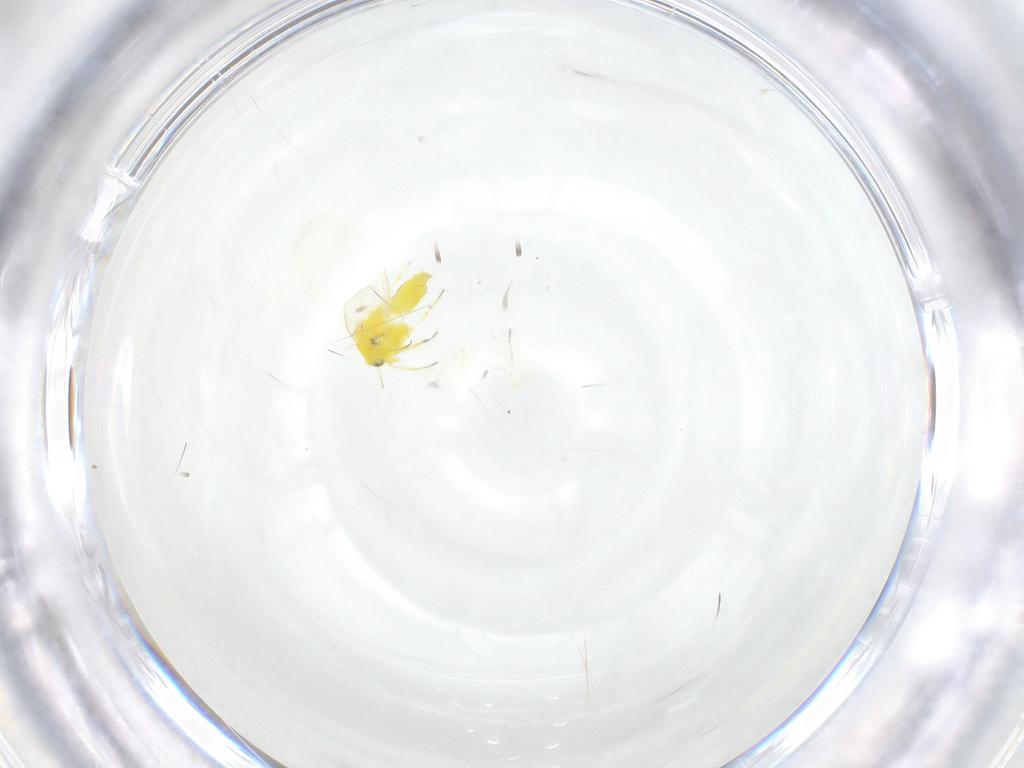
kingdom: Animalia
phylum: Arthropoda
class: Insecta
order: Hemiptera
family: Aleyrodidae
